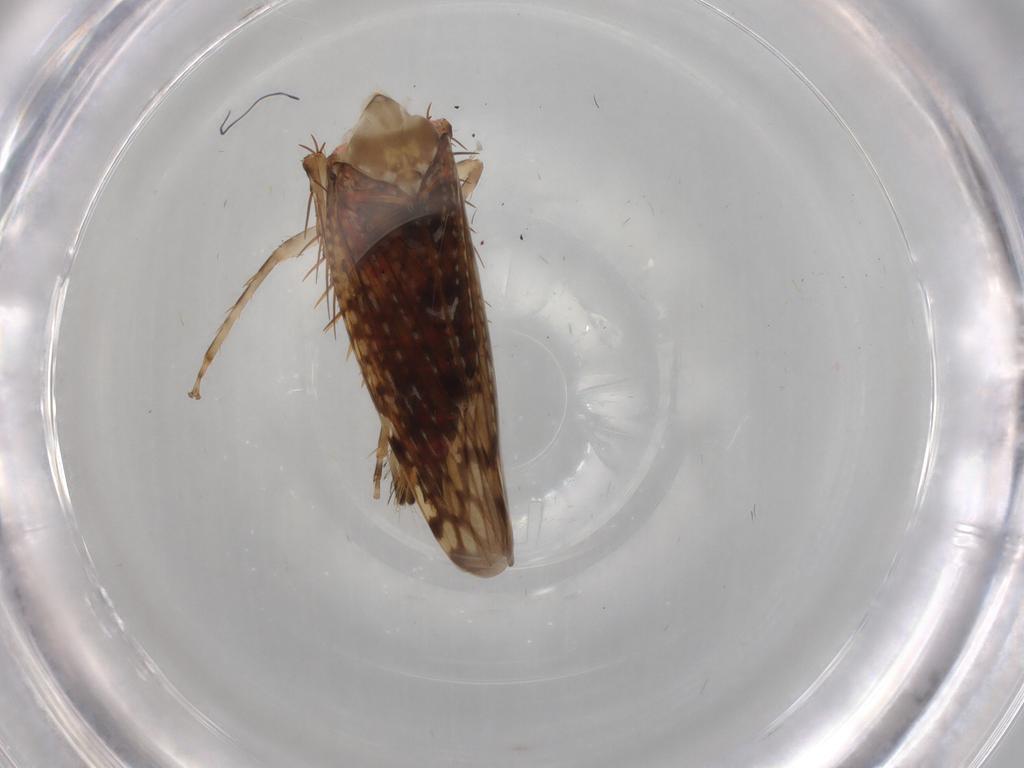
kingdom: Animalia
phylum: Arthropoda
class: Insecta
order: Hemiptera
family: Cicadellidae
